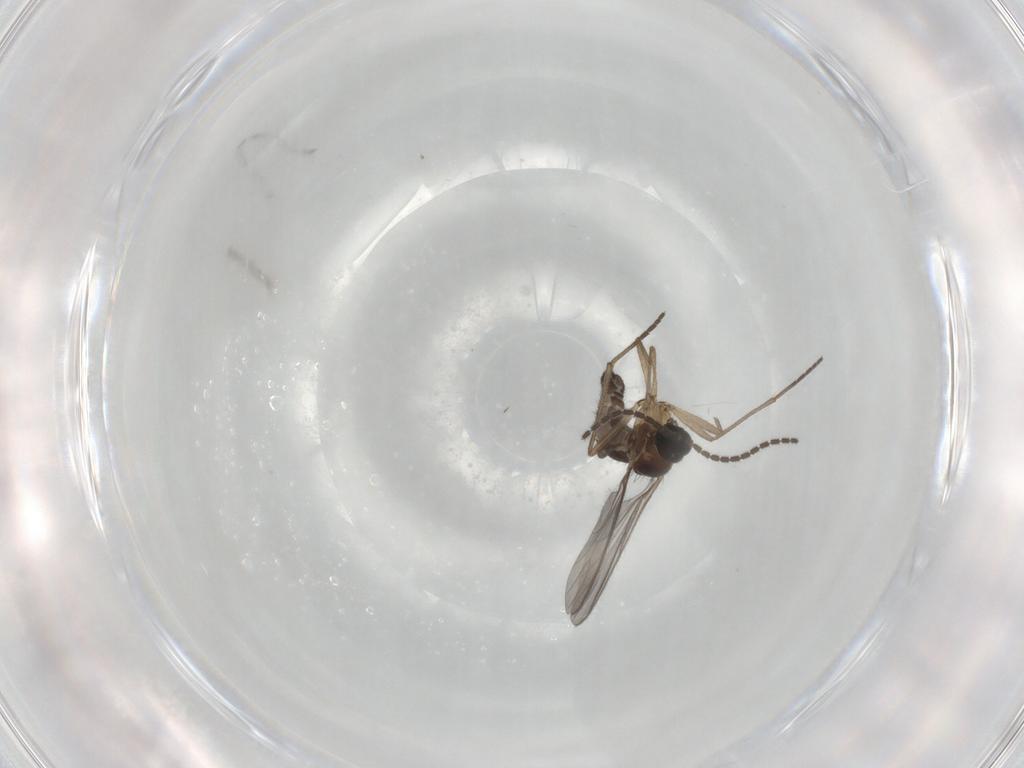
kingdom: Animalia
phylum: Arthropoda
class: Insecta
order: Diptera
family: Sciaridae
